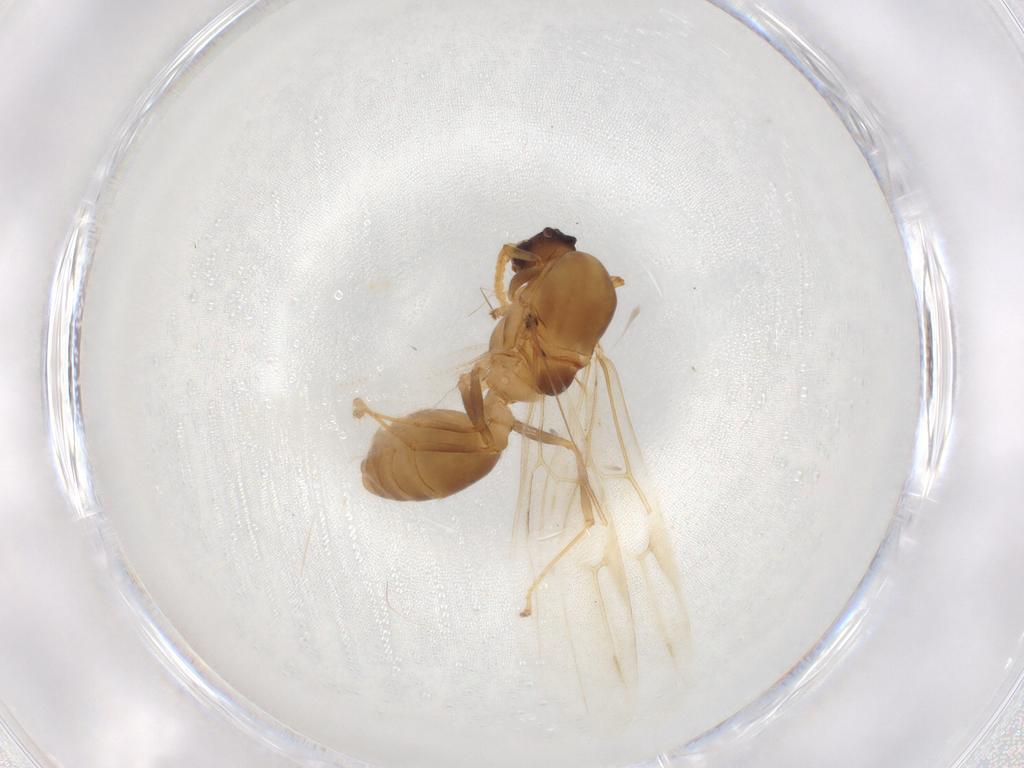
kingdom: Animalia
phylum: Arthropoda
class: Insecta
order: Hymenoptera
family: Formicidae
